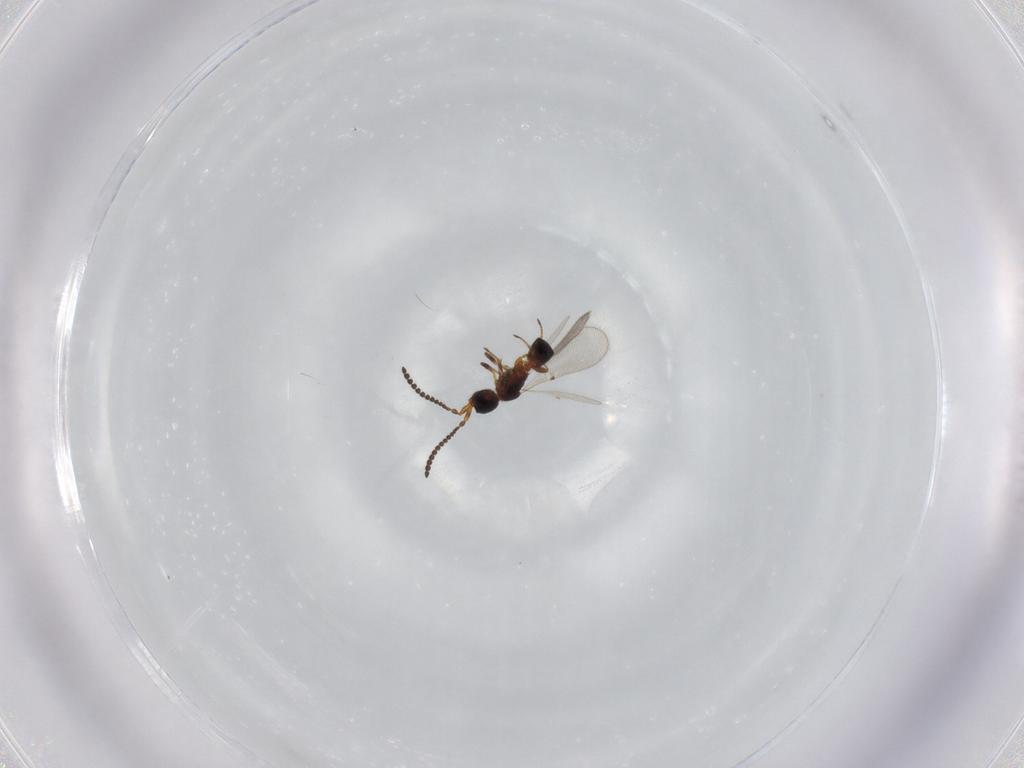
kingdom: Animalia
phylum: Arthropoda
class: Insecta
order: Hymenoptera
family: Diapriidae
